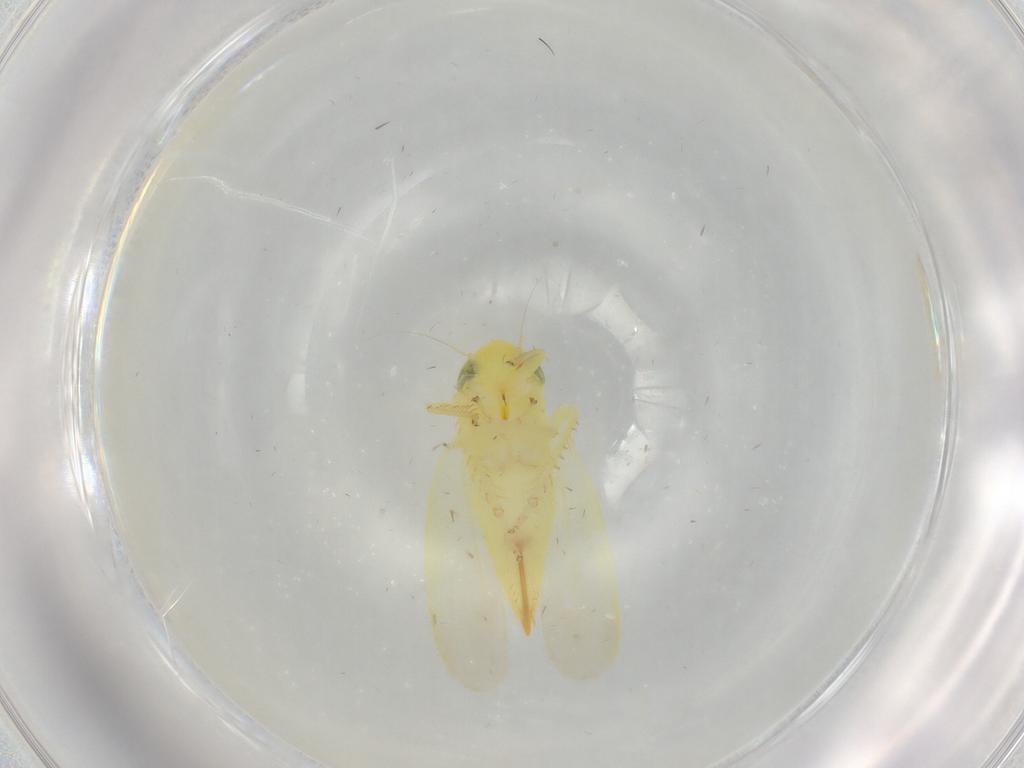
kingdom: Animalia
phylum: Arthropoda
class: Insecta
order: Hemiptera
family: Cicadellidae
